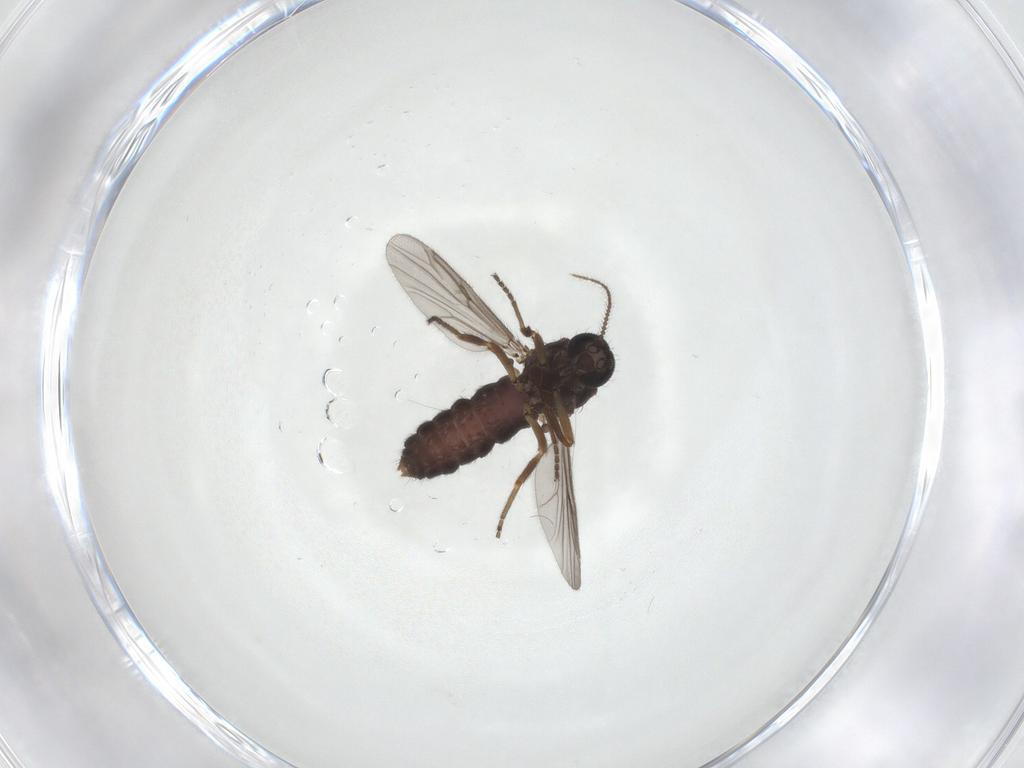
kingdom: Animalia
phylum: Arthropoda
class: Insecta
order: Diptera
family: Ceratopogonidae
